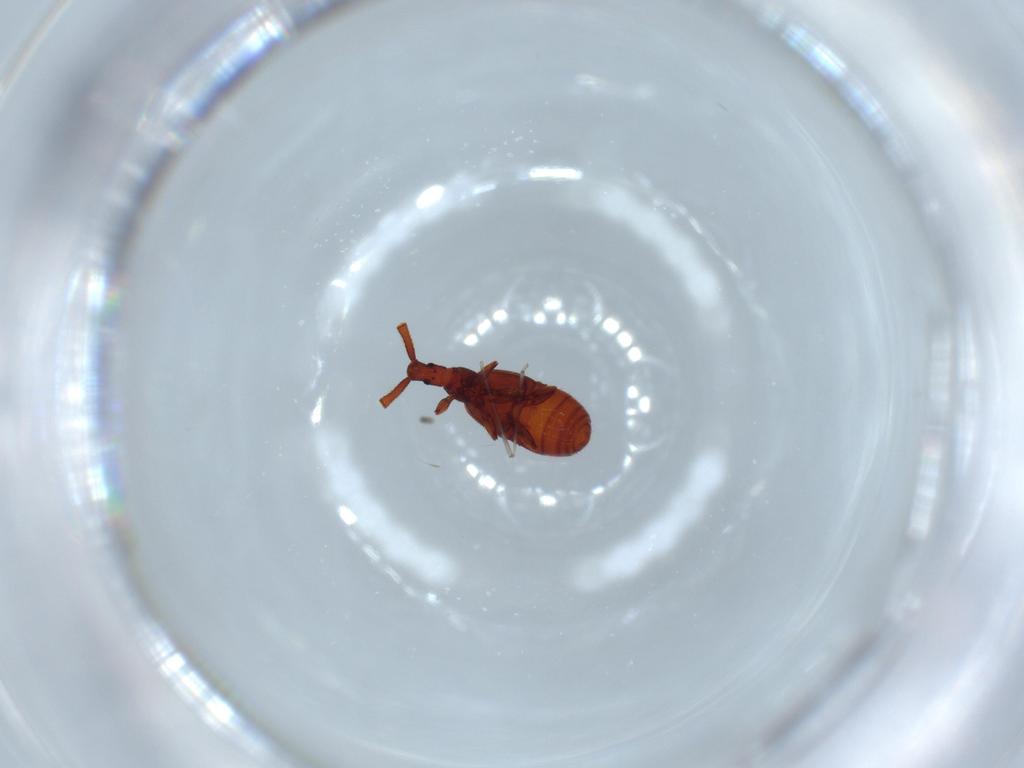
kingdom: Animalia
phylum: Arthropoda
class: Insecta
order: Coleoptera
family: Staphylinidae
